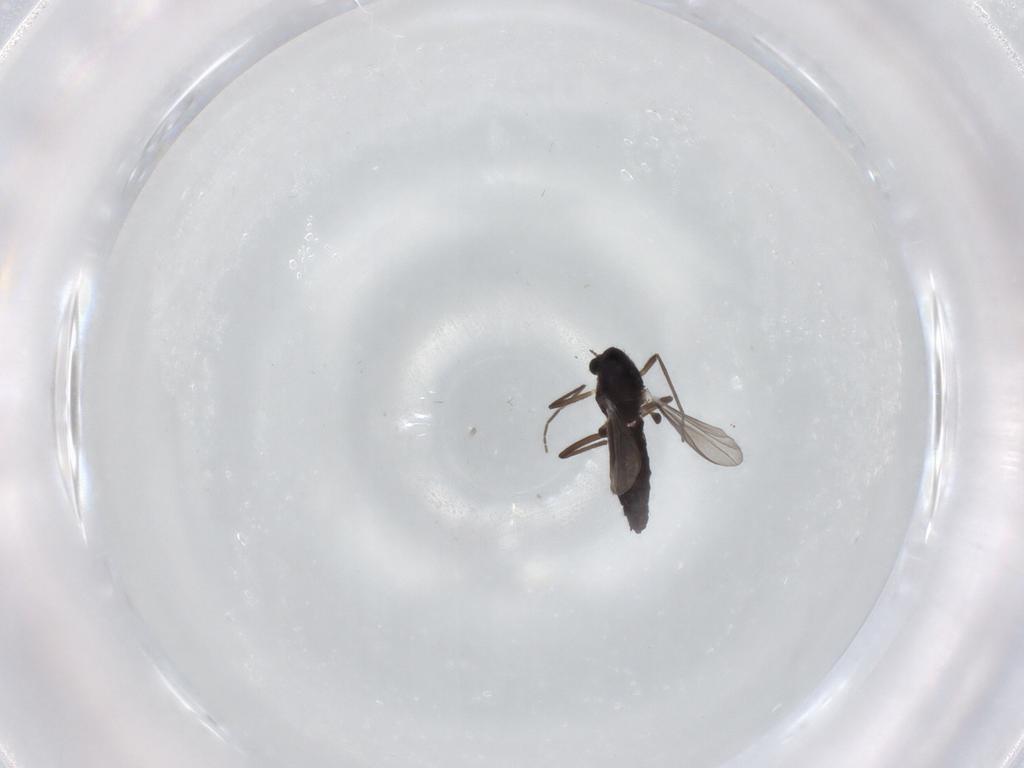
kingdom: Animalia
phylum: Arthropoda
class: Insecta
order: Diptera
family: Chironomidae
